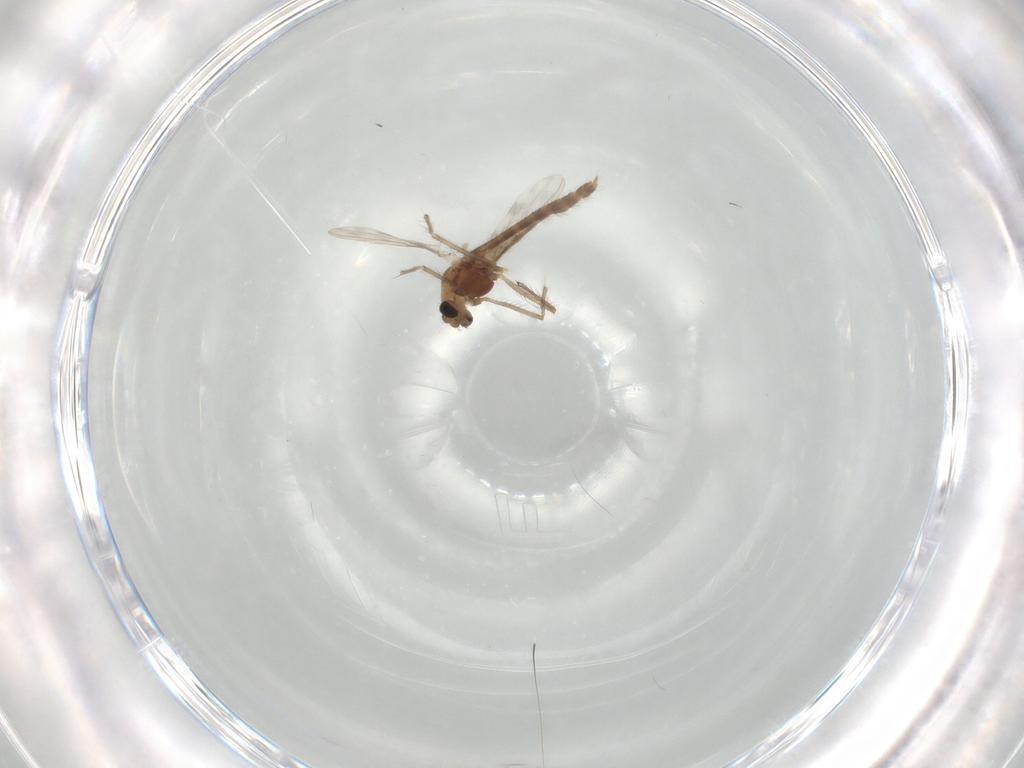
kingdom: Animalia
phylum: Arthropoda
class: Insecta
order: Diptera
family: Chironomidae
